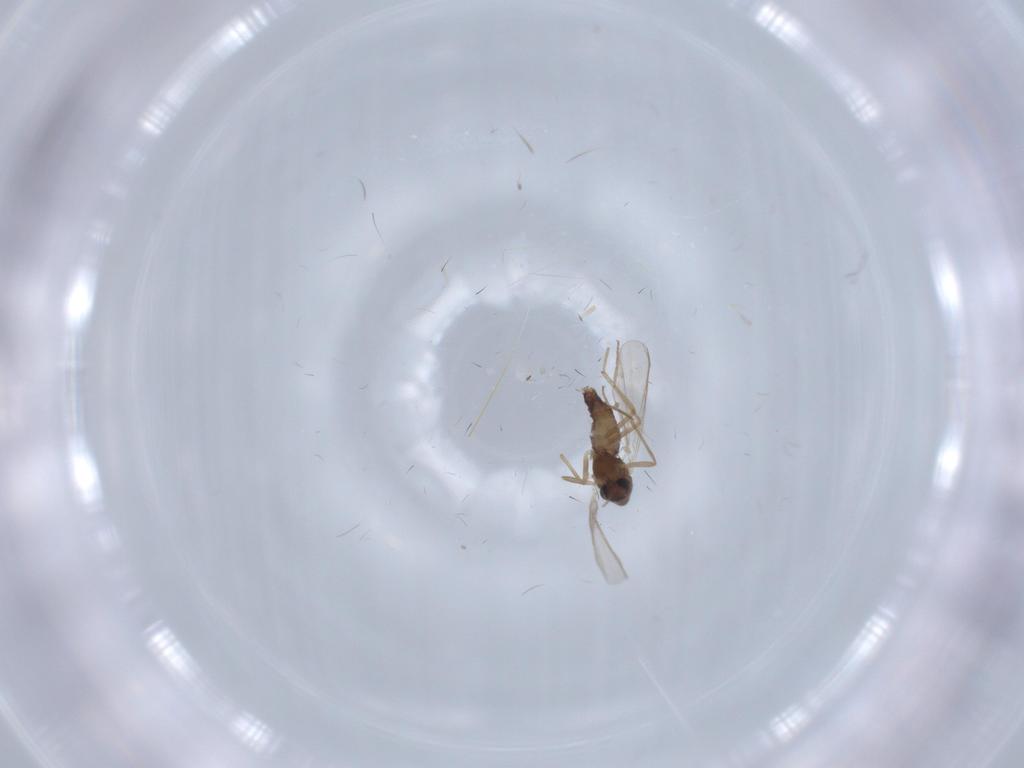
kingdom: Animalia
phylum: Arthropoda
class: Insecta
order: Diptera
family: Chironomidae
